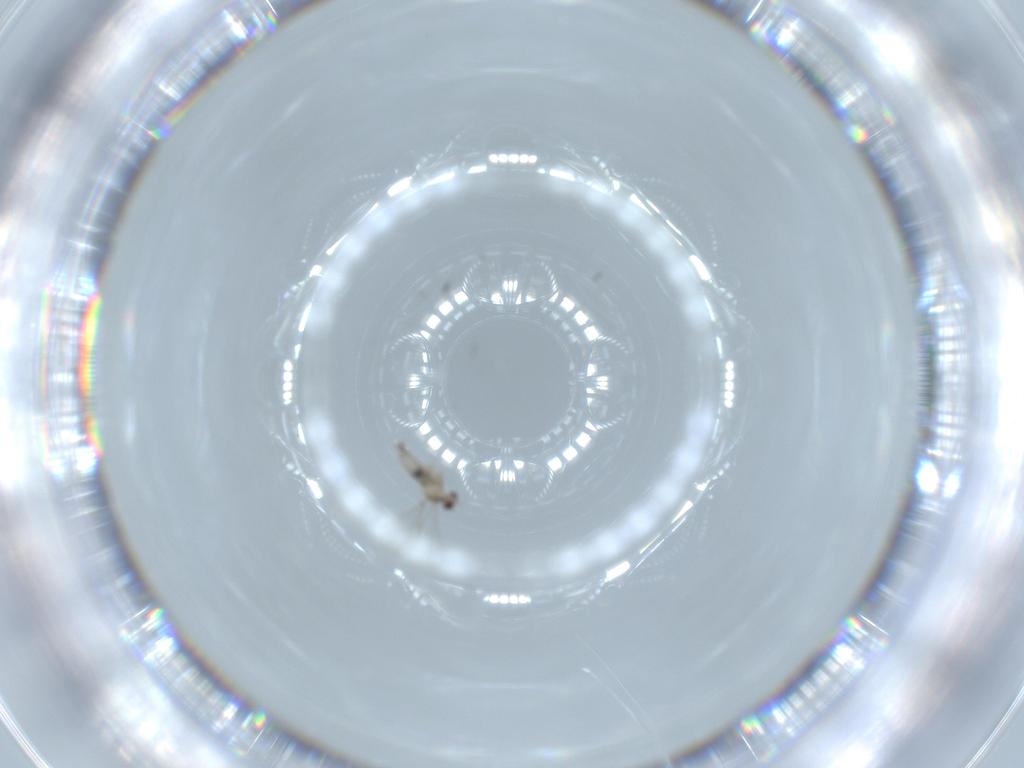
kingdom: Animalia
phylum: Arthropoda
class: Insecta
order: Diptera
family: Cecidomyiidae
